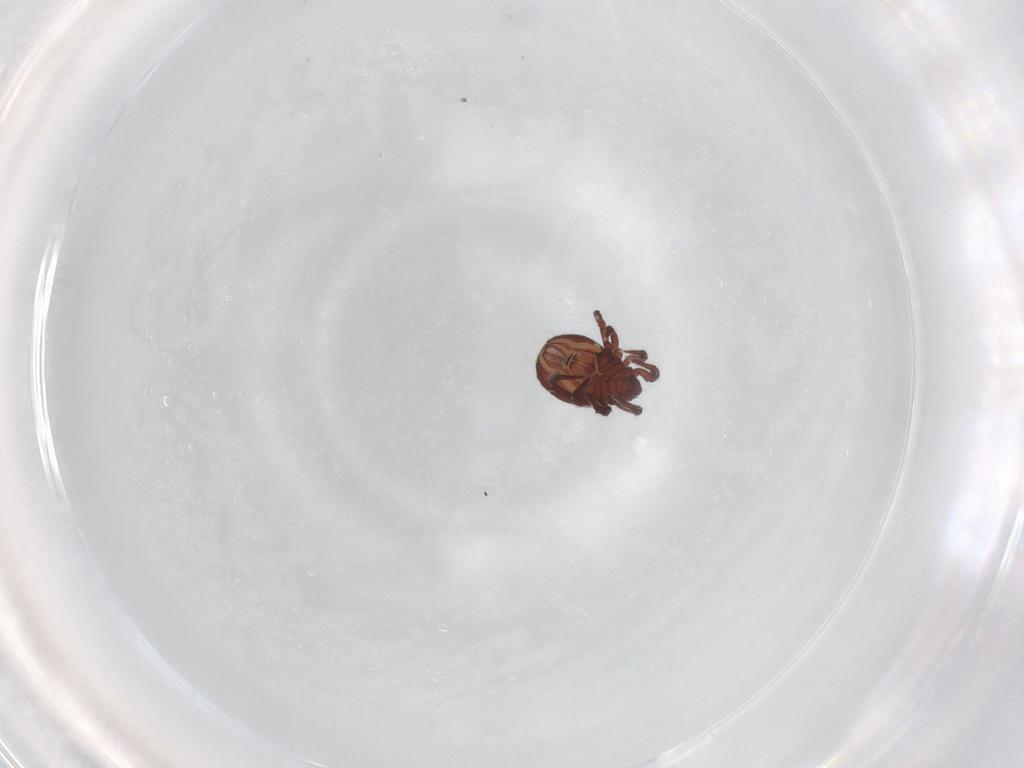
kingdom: Animalia
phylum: Arthropoda
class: Arachnida
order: Sarcoptiformes
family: Nothridae
